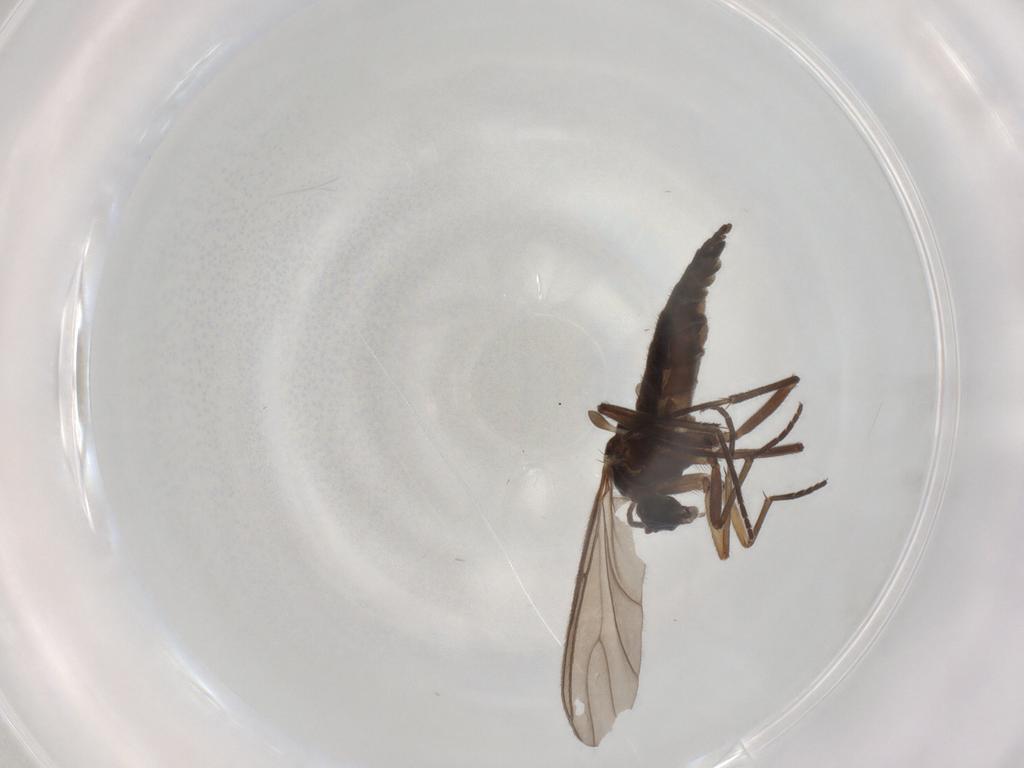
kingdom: Animalia
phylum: Arthropoda
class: Insecta
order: Diptera
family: Sciaridae
